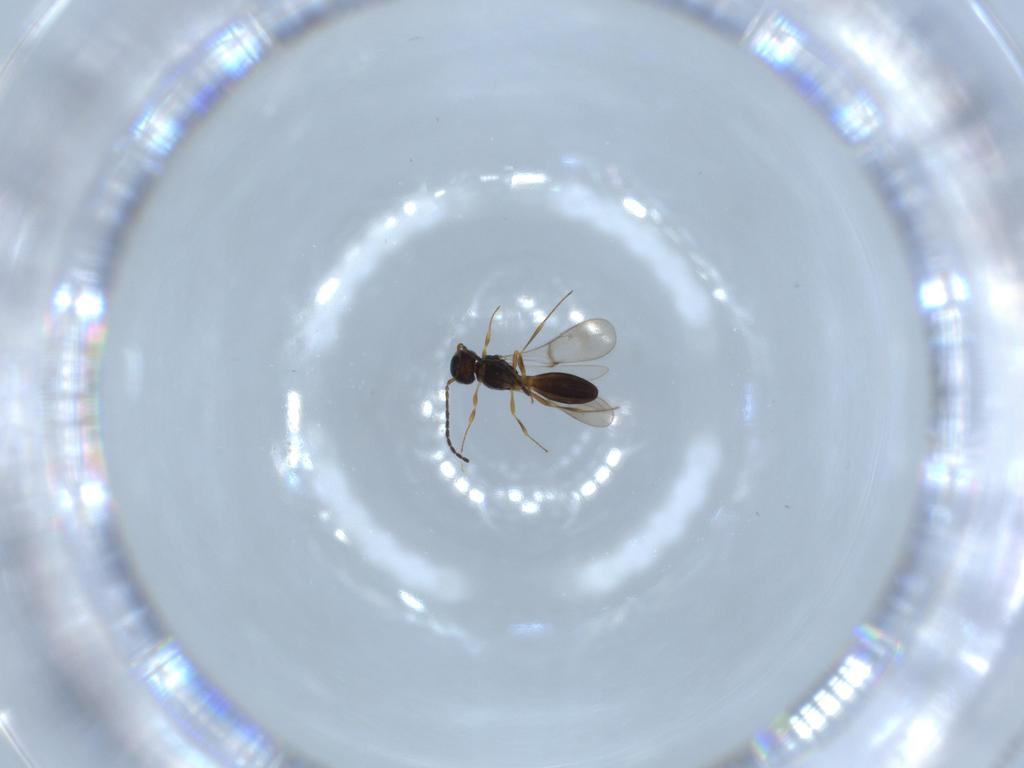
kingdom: Animalia
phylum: Arthropoda
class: Insecta
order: Hymenoptera
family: Scelionidae
